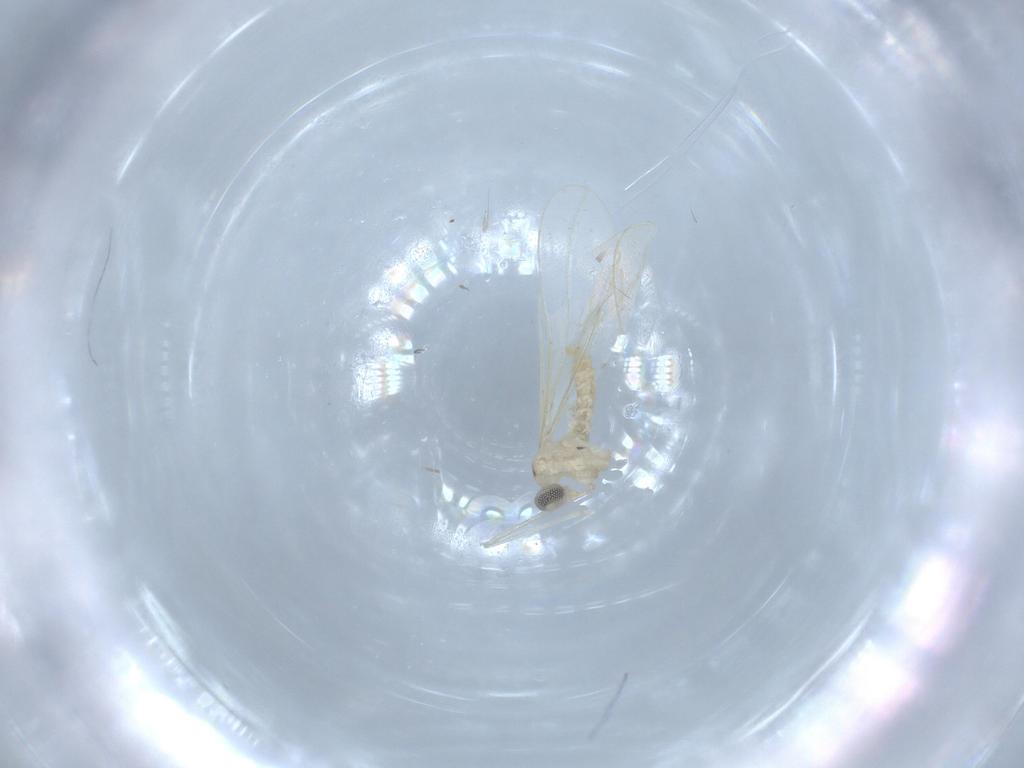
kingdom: Animalia
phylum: Arthropoda
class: Insecta
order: Diptera
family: Cecidomyiidae
